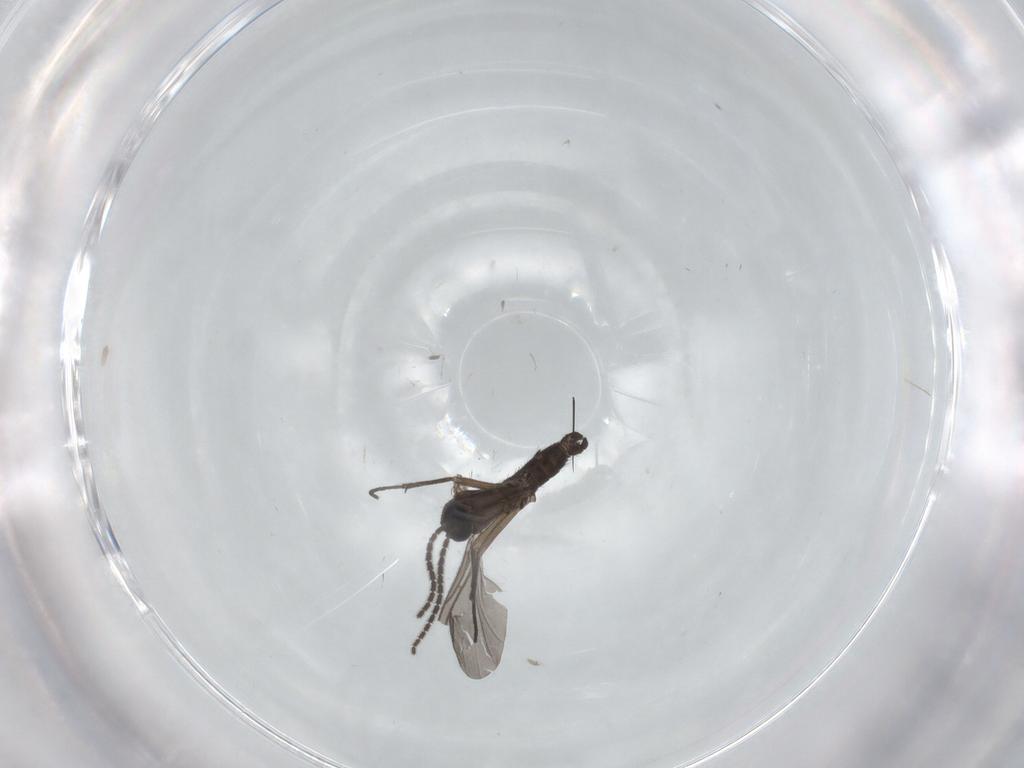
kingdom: Animalia
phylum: Arthropoda
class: Insecta
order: Diptera
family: Sciaridae
